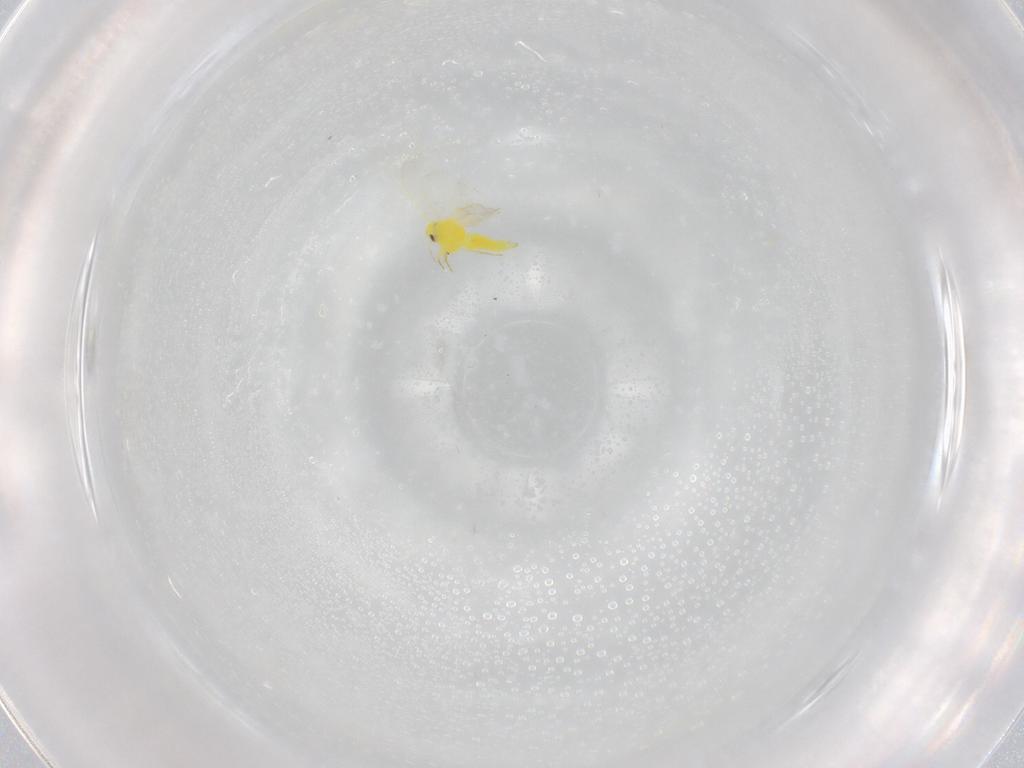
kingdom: Animalia
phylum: Arthropoda
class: Insecta
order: Hemiptera
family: Aleyrodidae
